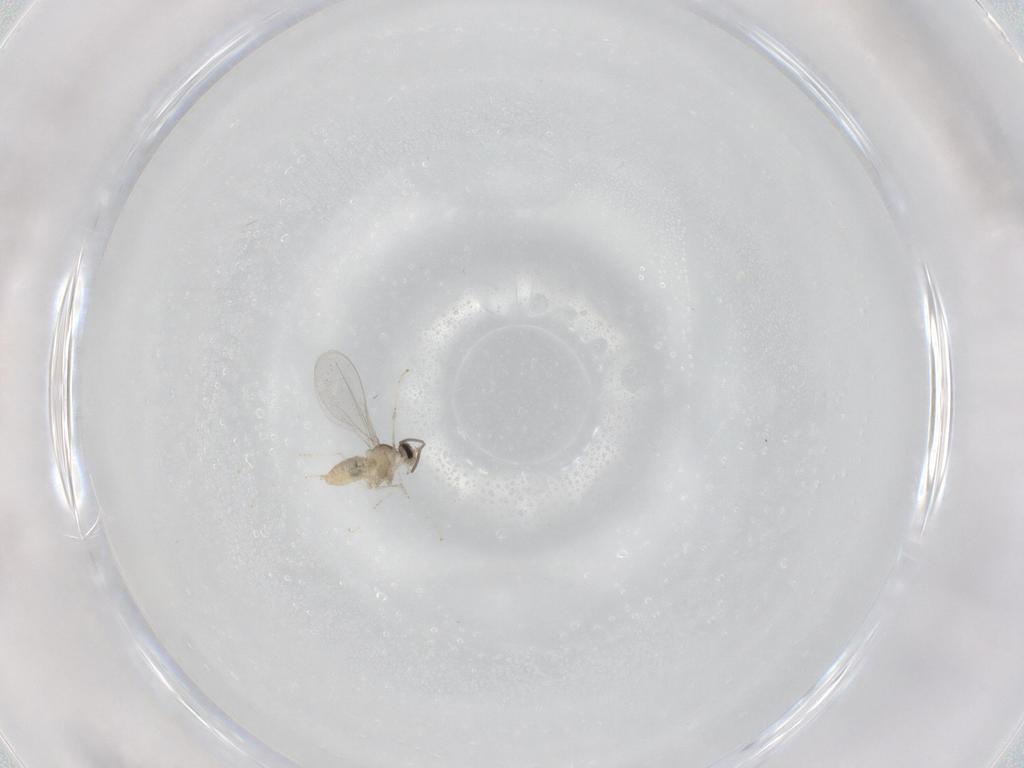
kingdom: Animalia
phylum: Arthropoda
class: Insecta
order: Diptera
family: Cecidomyiidae
